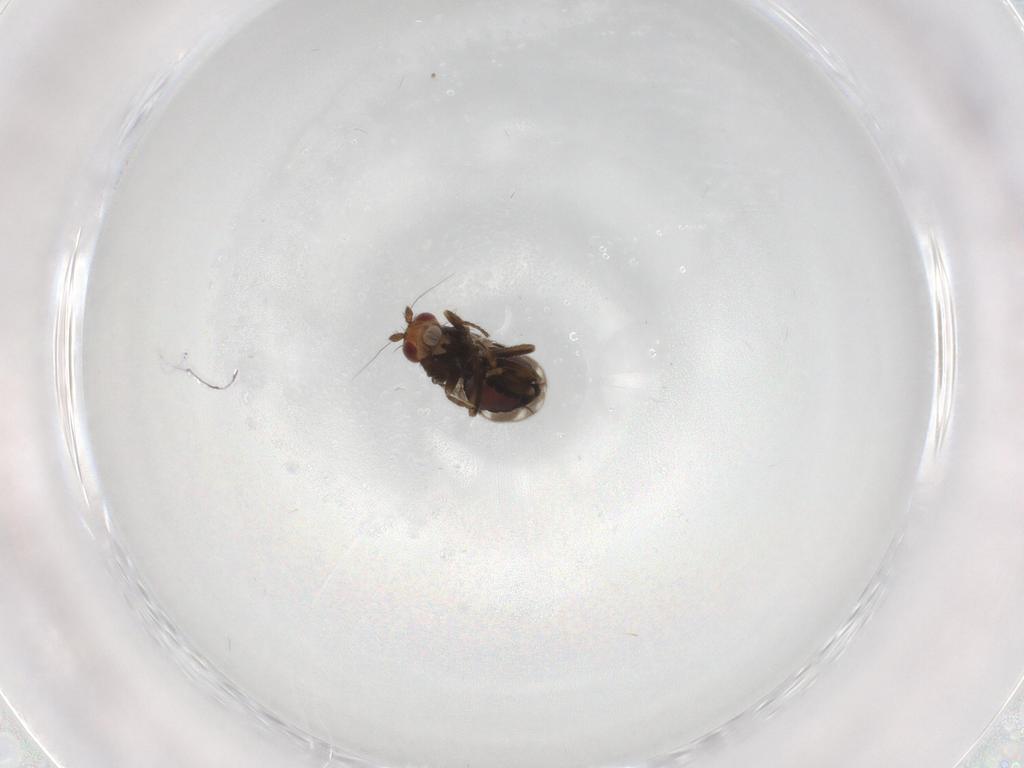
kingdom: Animalia
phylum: Arthropoda
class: Insecta
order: Diptera
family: Sphaeroceridae
